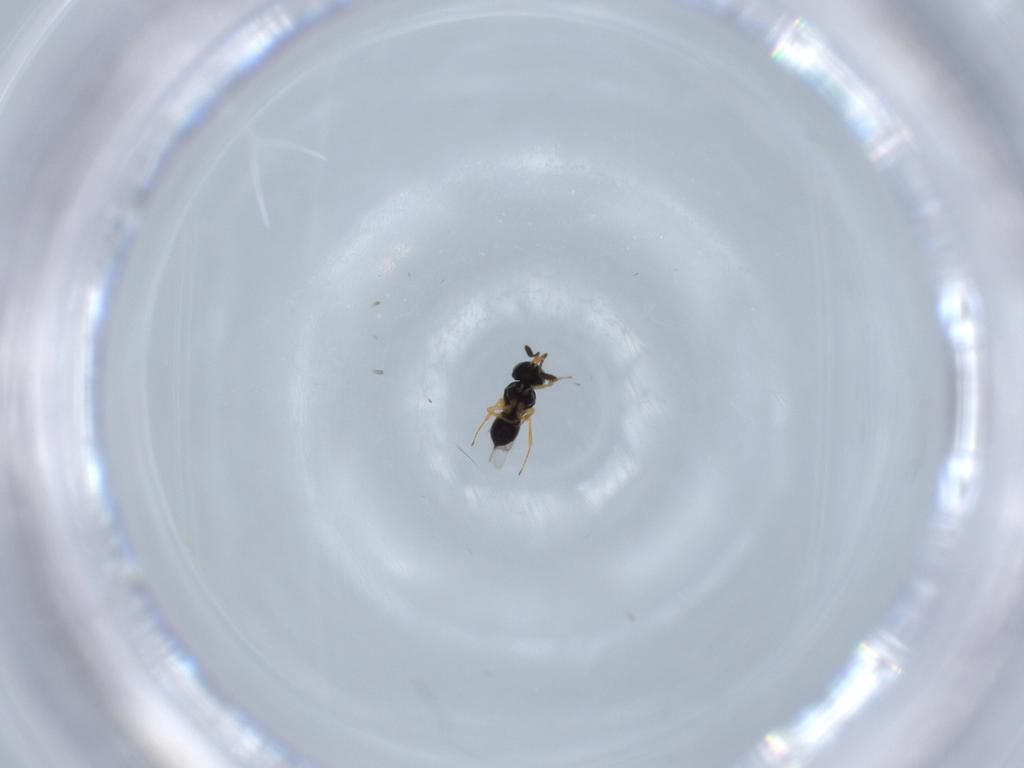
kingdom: Animalia
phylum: Arthropoda
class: Insecta
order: Hymenoptera
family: Scelionidae
